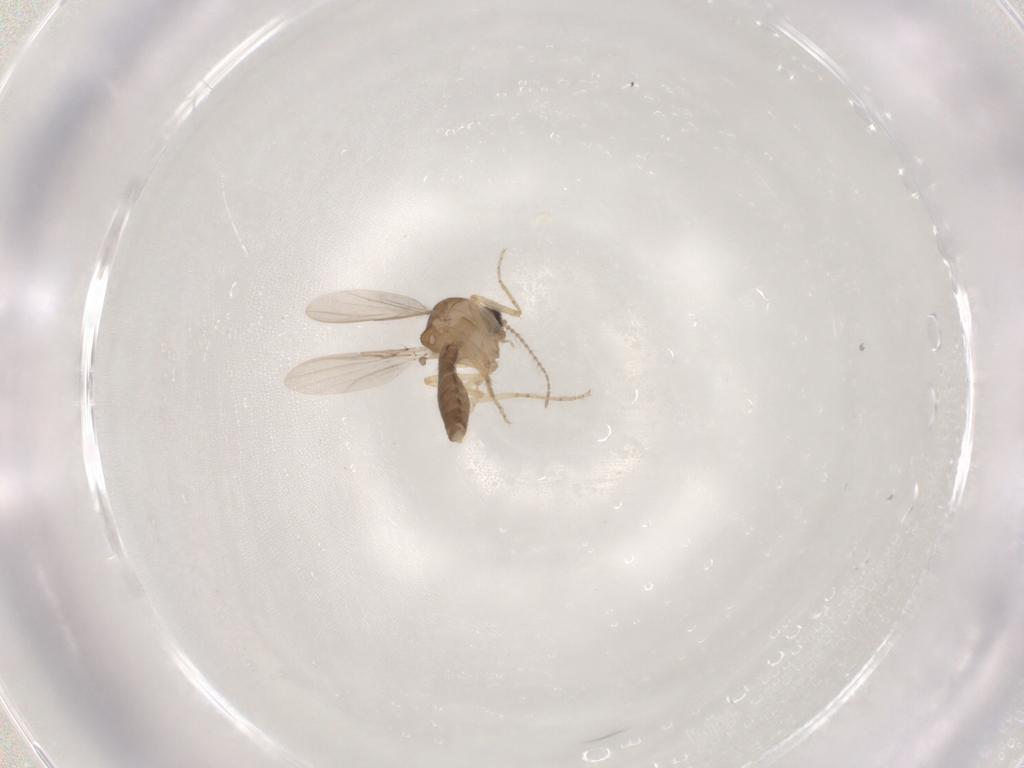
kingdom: Animalia
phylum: Arthropoda
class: Insecta
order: Diptera
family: Ceratopogonidae
